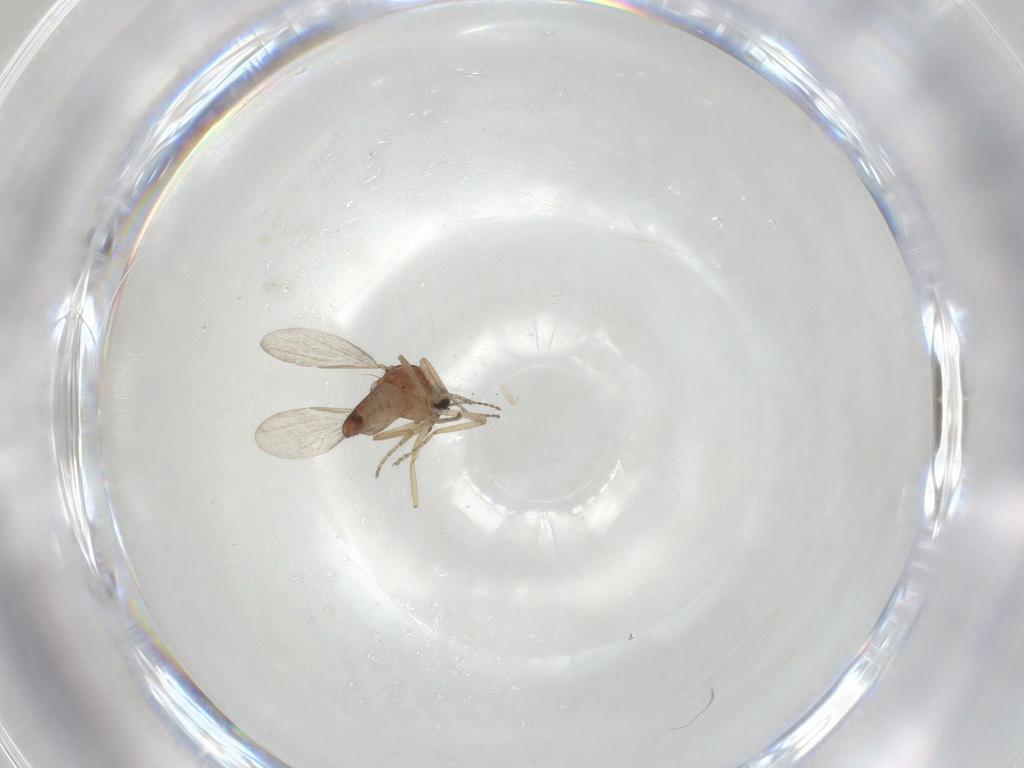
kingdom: Animalia
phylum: Arthropoda
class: Insecta
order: Diptera
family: Ceratopogonidae
